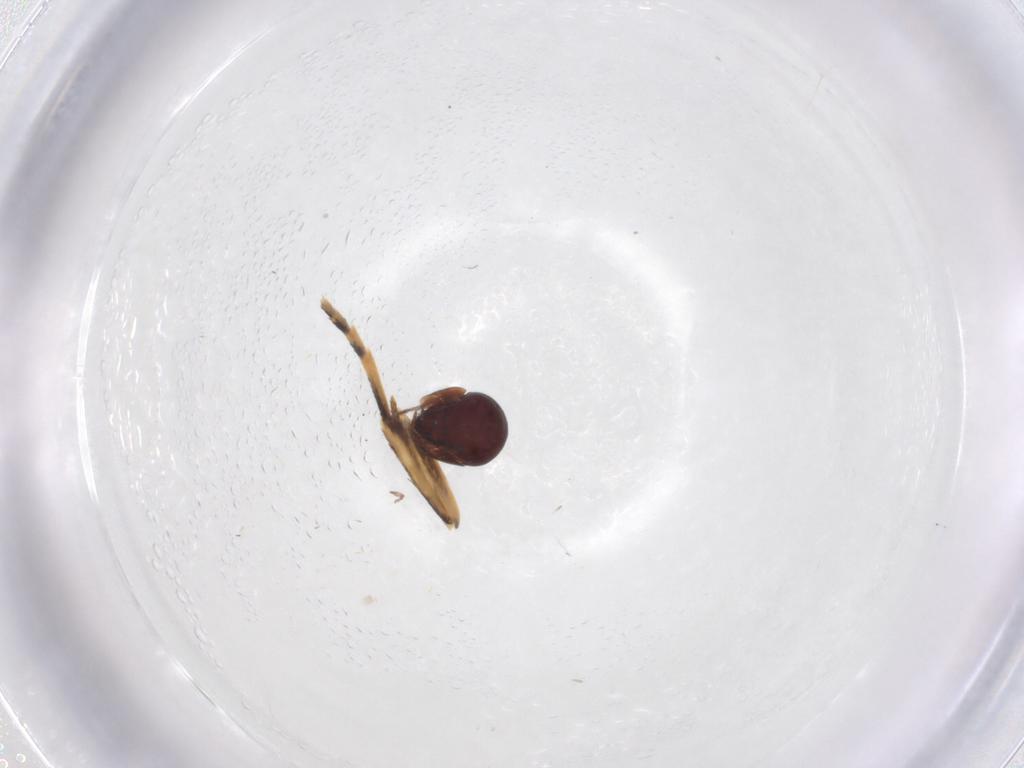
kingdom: Animalia
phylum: Arthropoda
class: Arachnida
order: Sarcoptiformes
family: Galumnidae
